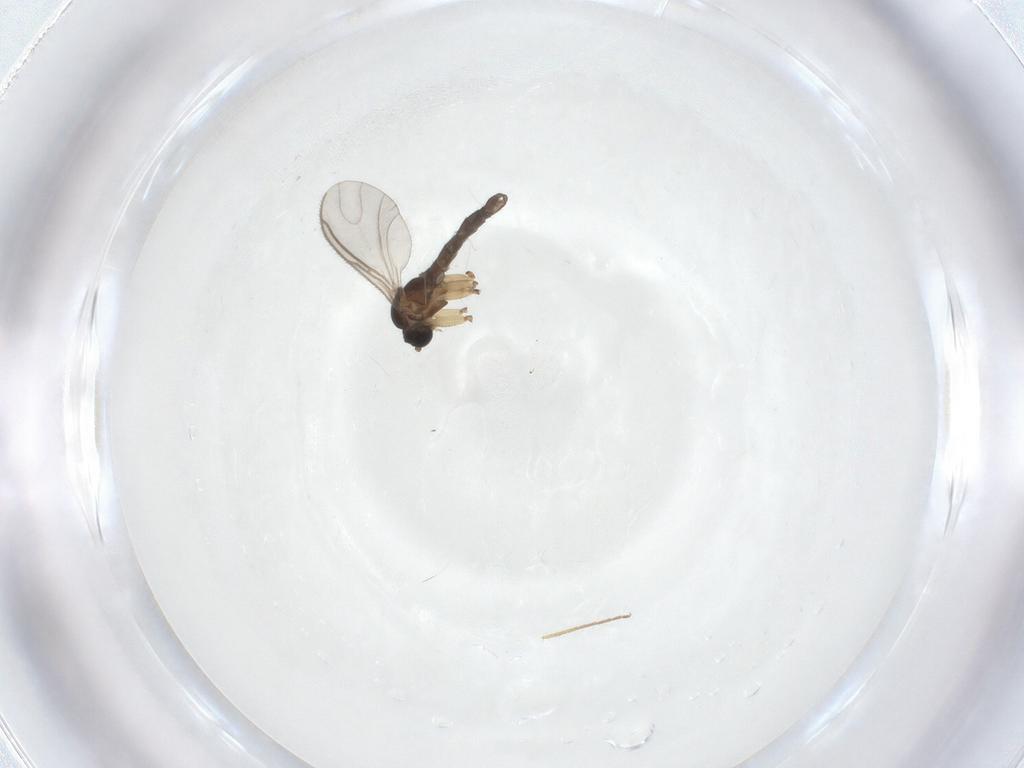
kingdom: Animalia
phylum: Arthropoda
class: Insecta
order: Diptera
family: Sciaridae
